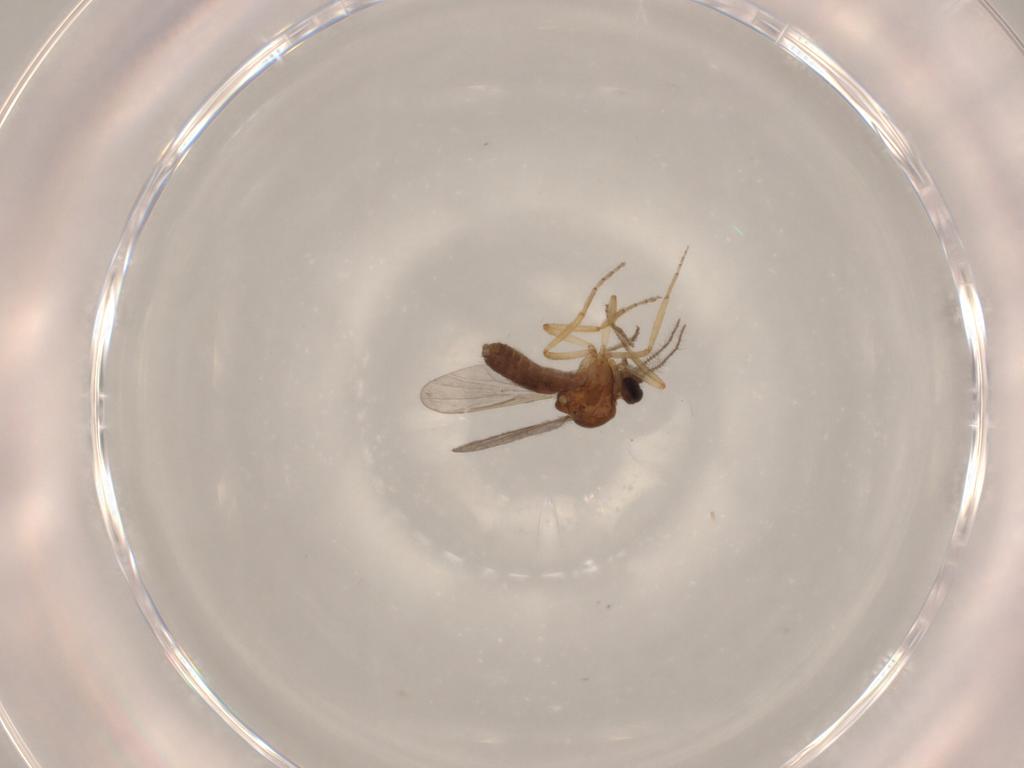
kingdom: Animalia
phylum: Arthropoda
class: Insecta
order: Diptera
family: Ceratopogonidae
